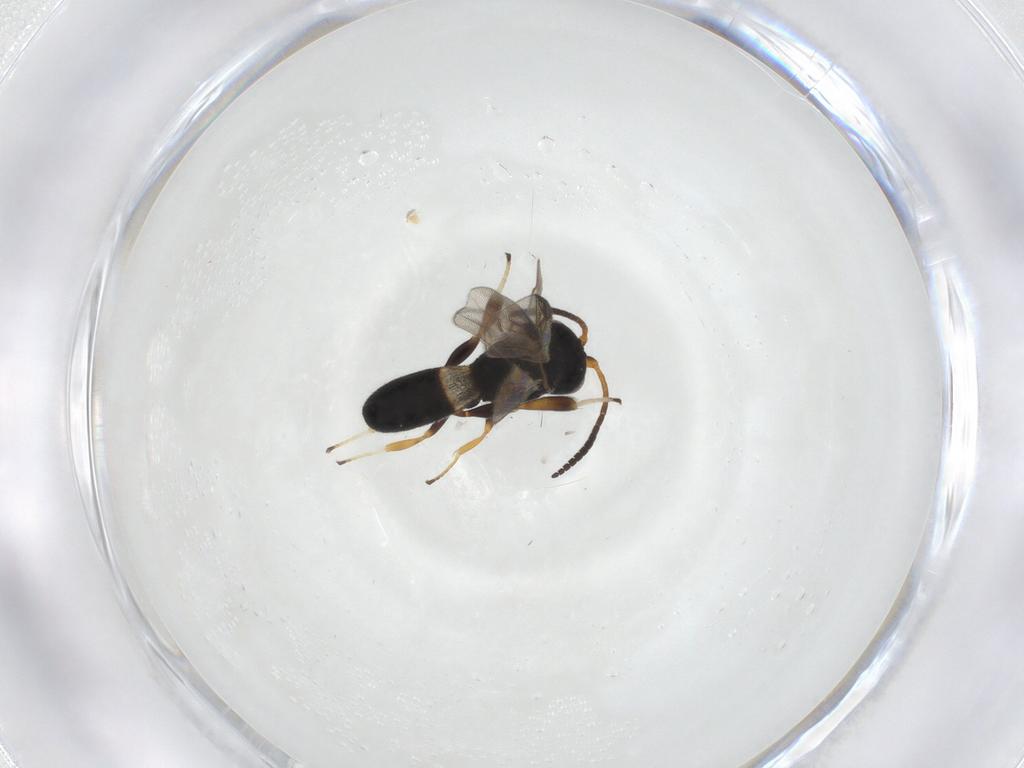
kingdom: Animalia
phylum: Arthropoda
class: Insecta
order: Hymenoptera
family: Braconidae
